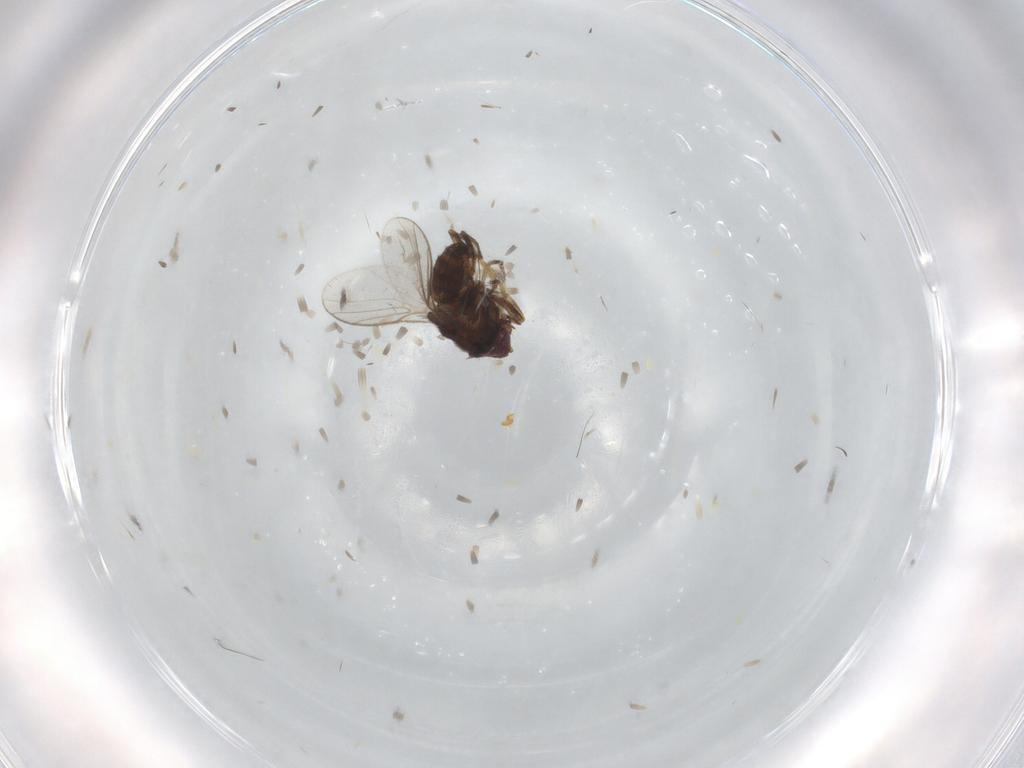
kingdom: Animalia
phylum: Arthropoda
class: Insecta
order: Diptera
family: Chloropidae
